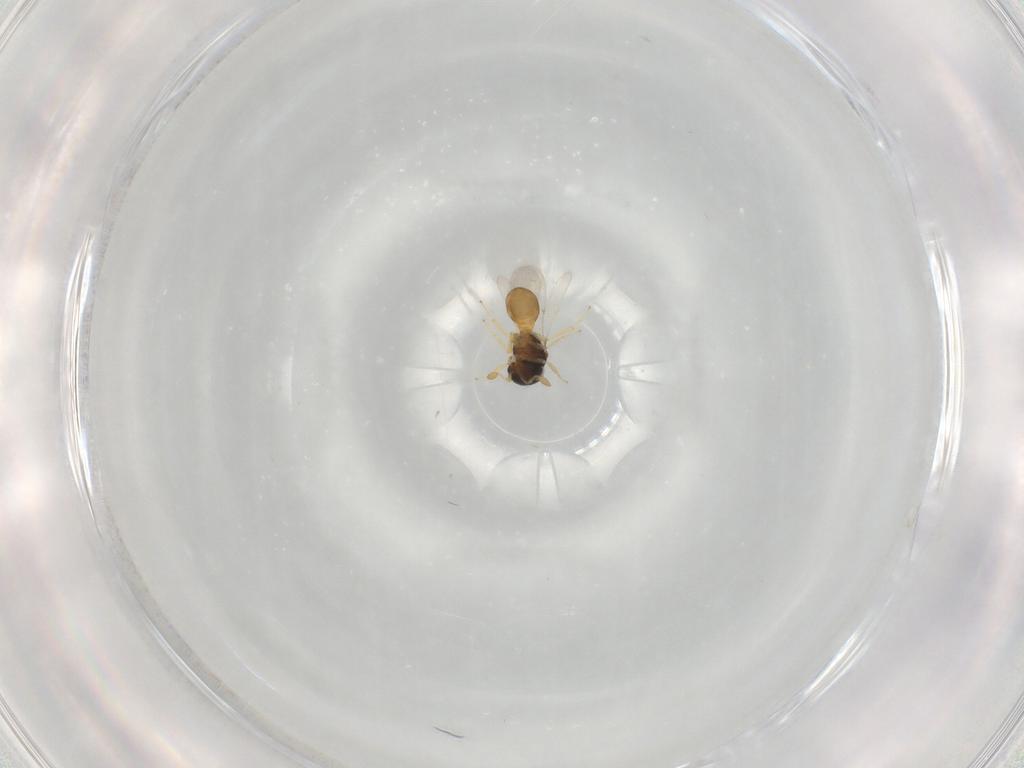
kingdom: Animalia
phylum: Arthropoda
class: Insecta
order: Hymenoptera
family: Scelionidae
